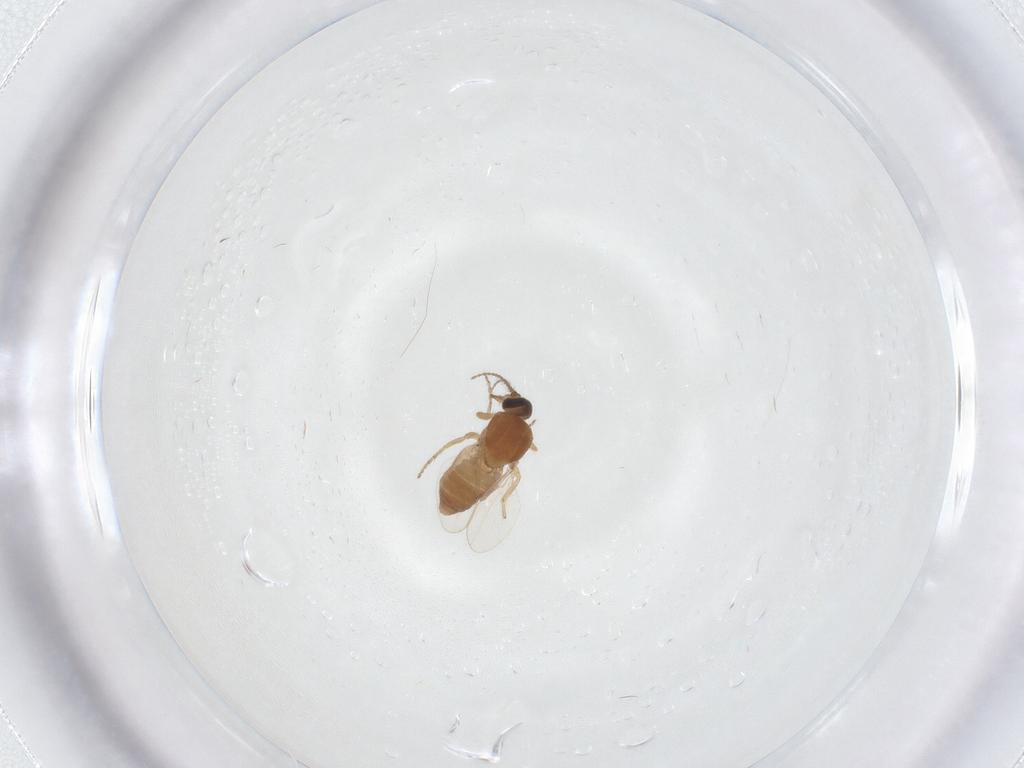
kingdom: Animalia
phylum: Arthropoda
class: Insecta
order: Diptera
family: Ceratopogonidae
